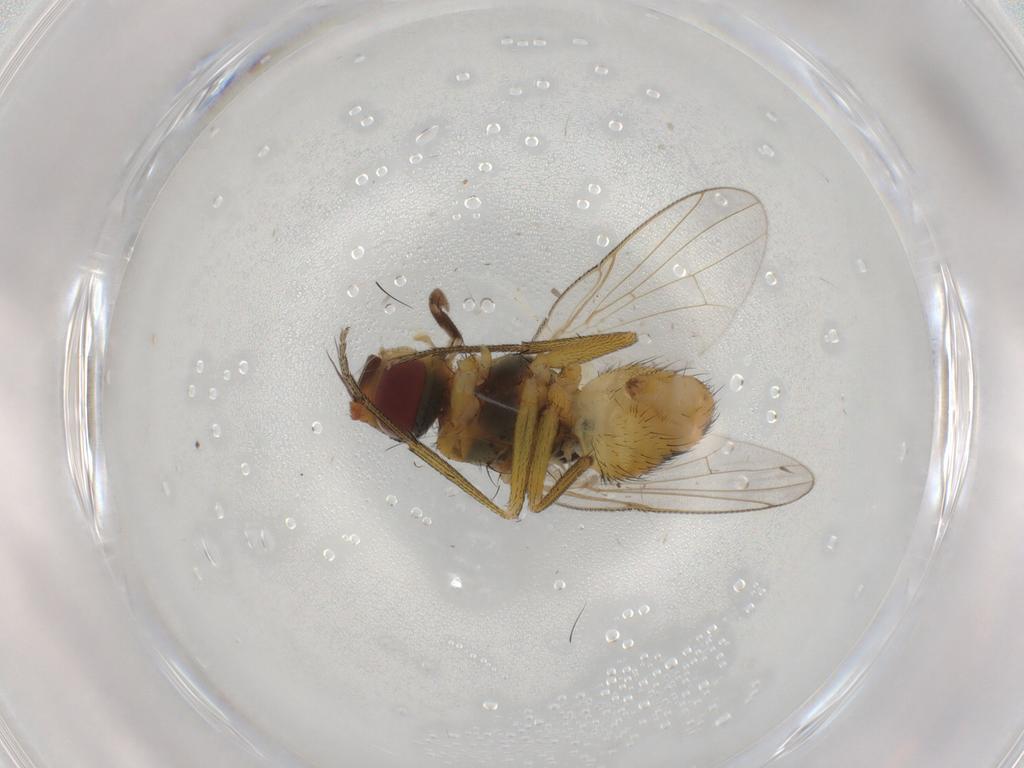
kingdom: Animalia
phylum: Arthropoda
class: Insecta
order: Diptera
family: Muscidae
